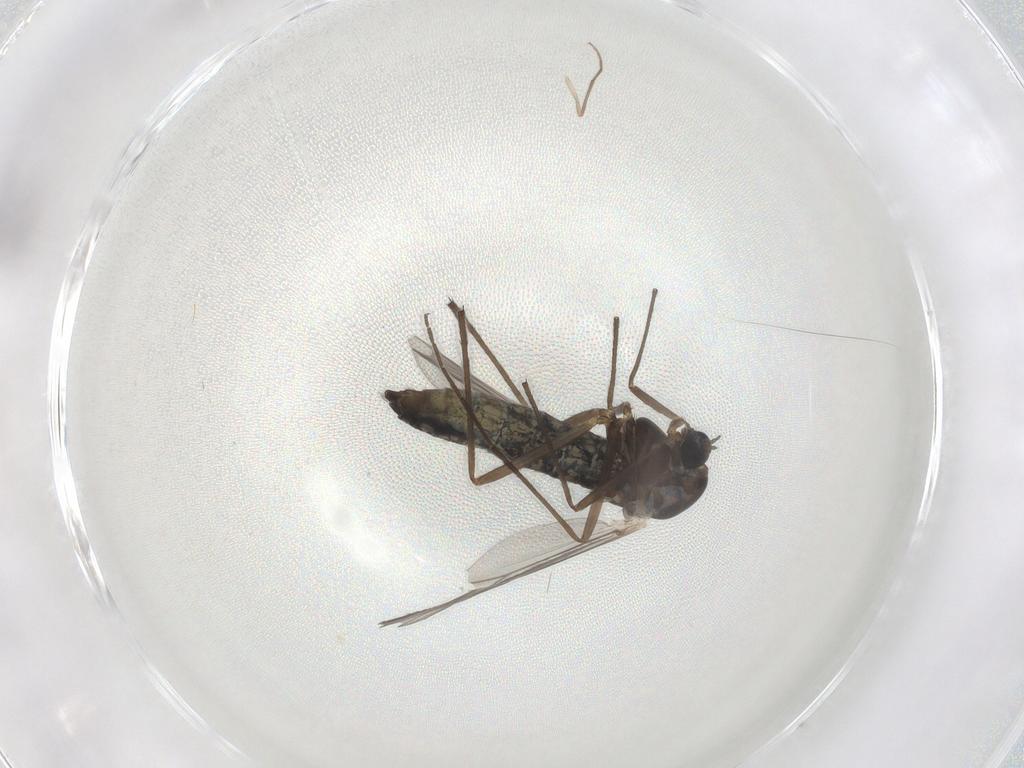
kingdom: Animalia
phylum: Arthropoda
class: Insecta
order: Diptera
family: Chironomidae
